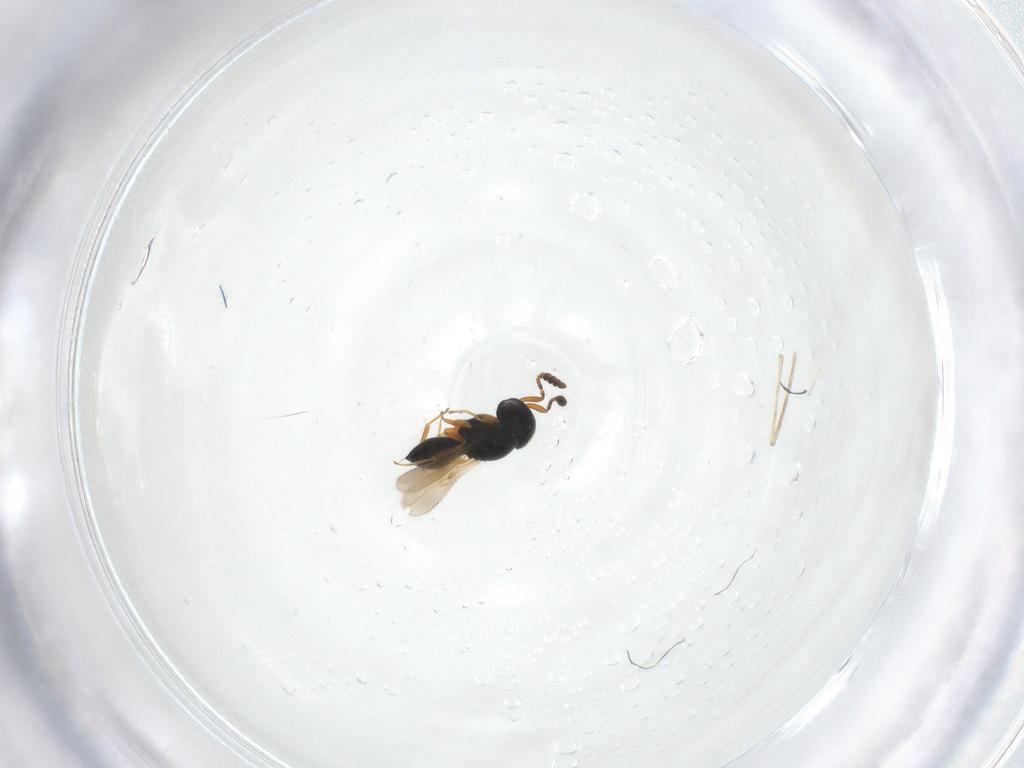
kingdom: Animalia
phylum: Arthropoda
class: Insecta
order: Hymenoptera
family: Scelionidae
